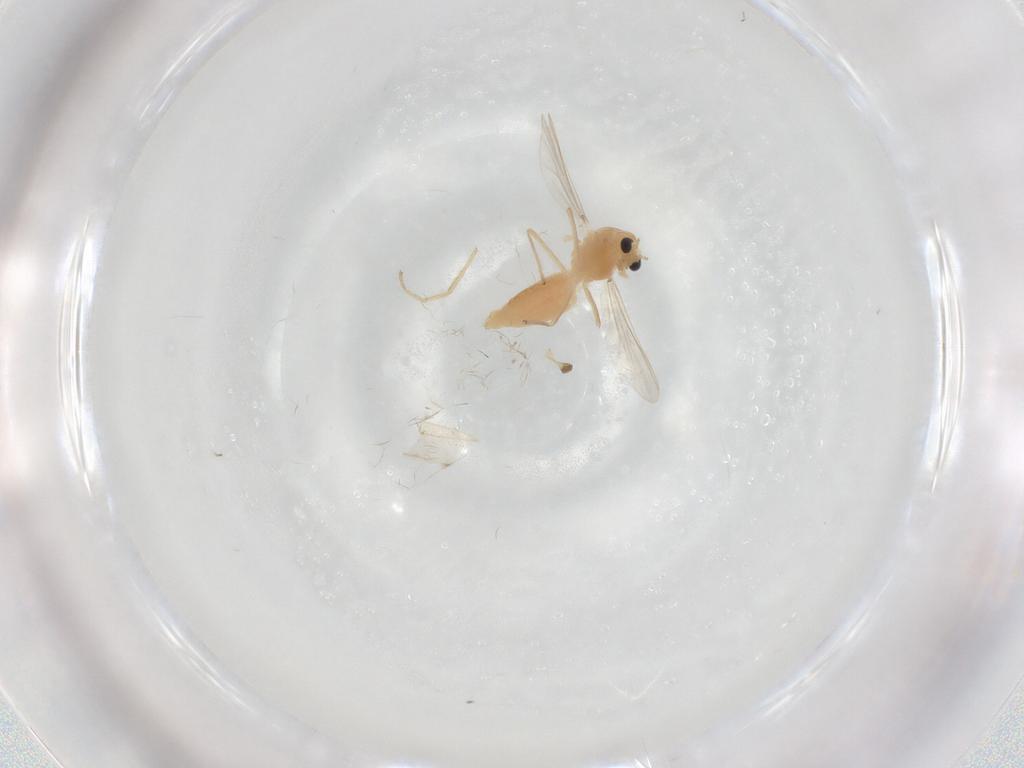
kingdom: Animalia
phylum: Arthropoda
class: Insecta
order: Diptera
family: Chironomidae
